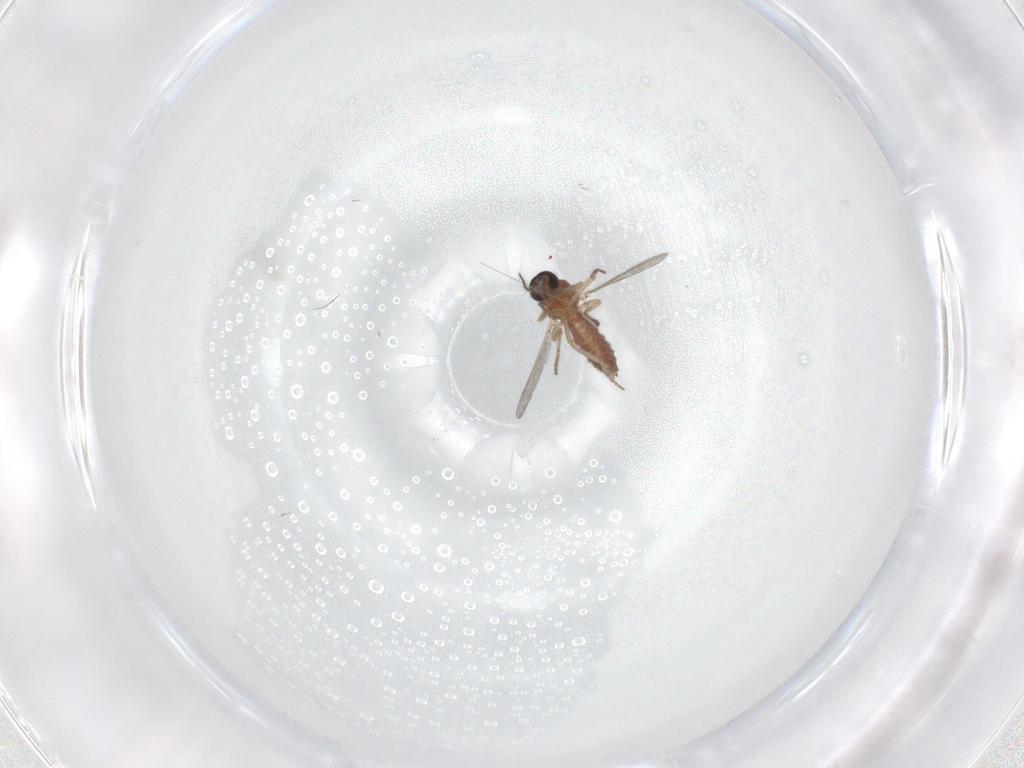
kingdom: Animalia
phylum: Arthropoda
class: Insecta
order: Diptera
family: Ceratopogonidae
